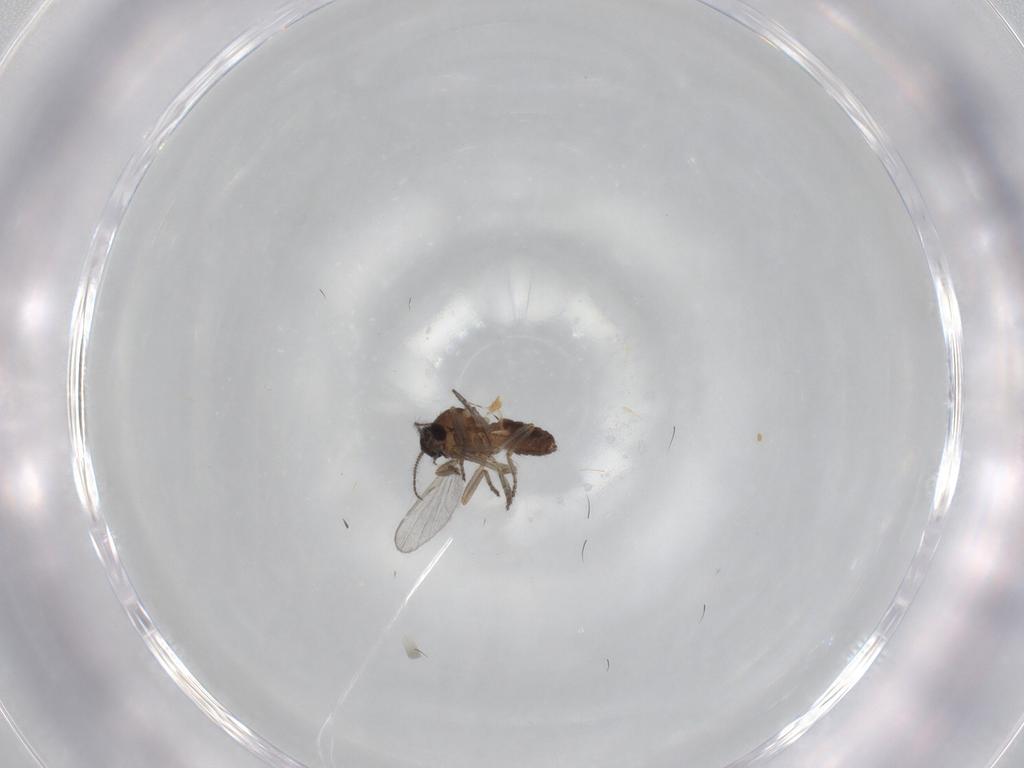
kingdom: Animalia
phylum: Arthropoda
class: Insecta
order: Diptera
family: Ceratopogonidae
